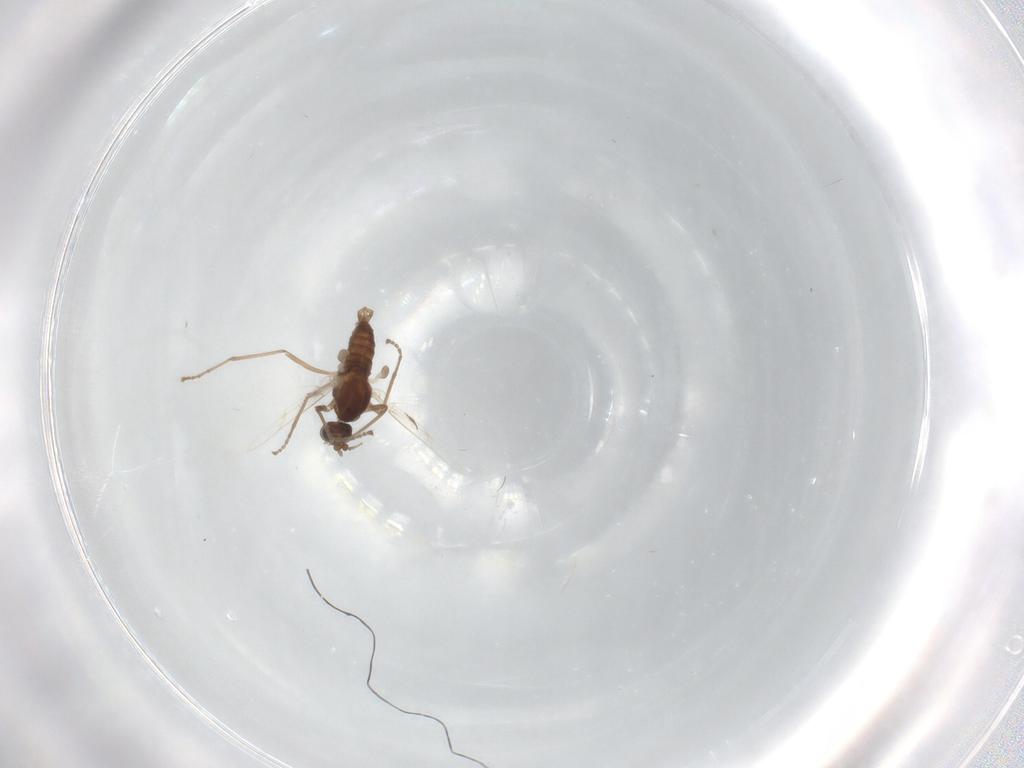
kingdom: Animalia
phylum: Arthropoda
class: Insecta
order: Diptera
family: Cecidomyiidae
